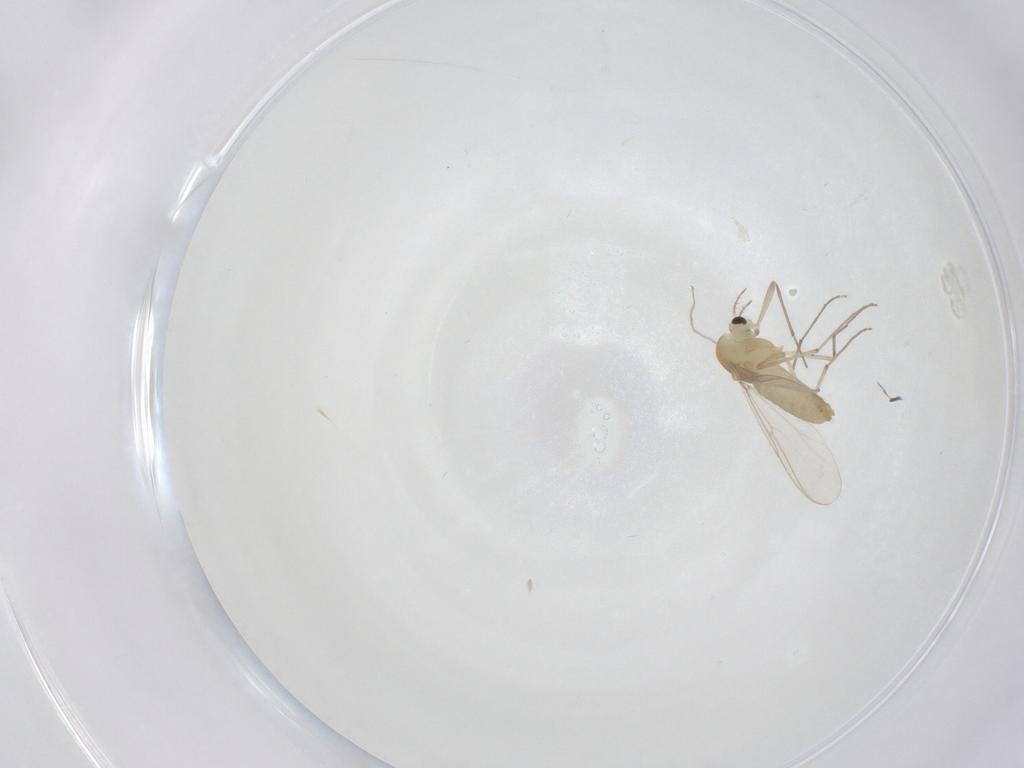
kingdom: Animalia
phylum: Arthropoda
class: Insecta
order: Diptera
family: Chironomidae
